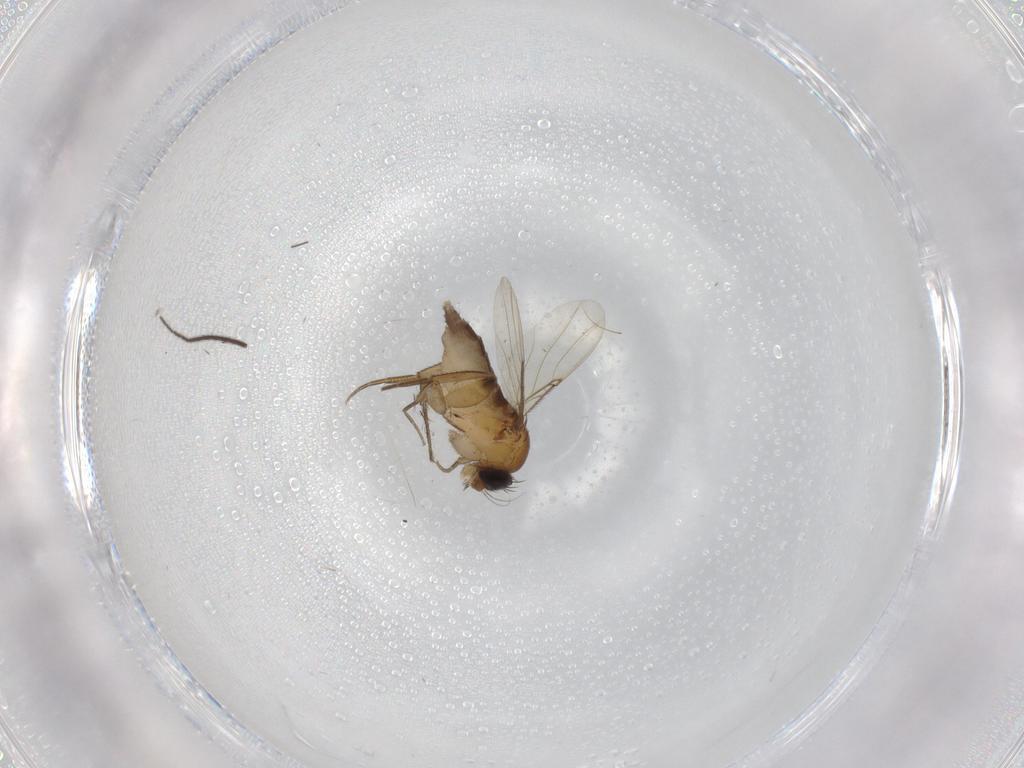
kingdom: Animalia
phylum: Arthropoda
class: Insecta
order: Diptera
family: Phoridae
